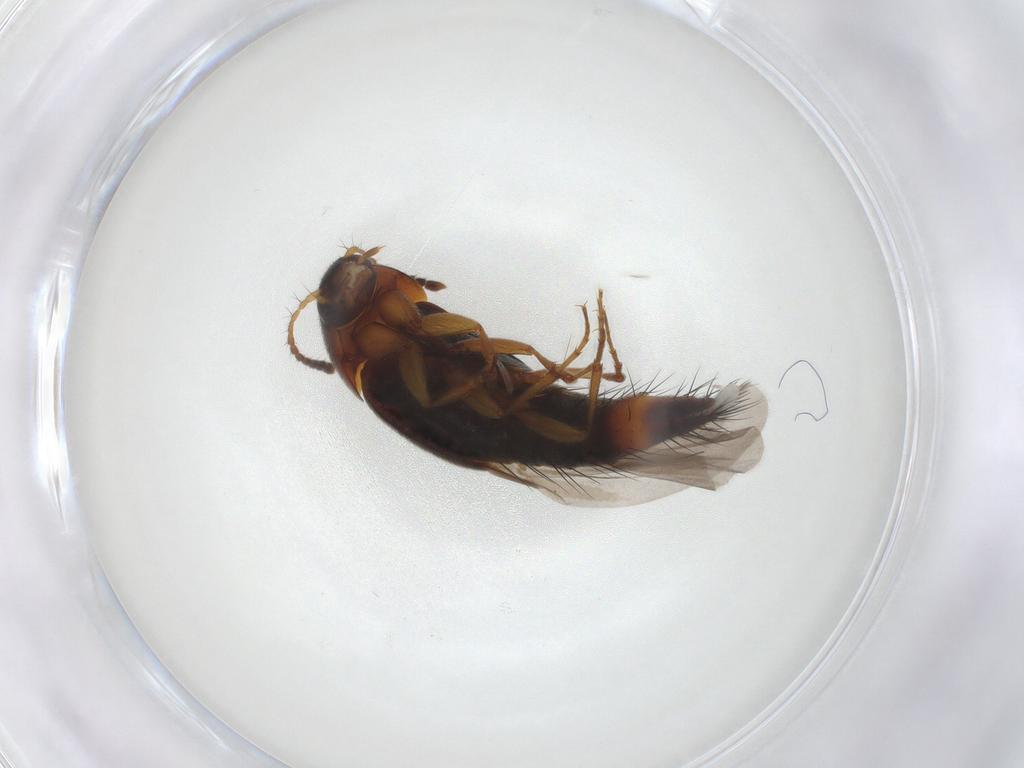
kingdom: Animalia
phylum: Arthropoda
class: Insecta
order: Coleoptera
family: Staphylinidae
